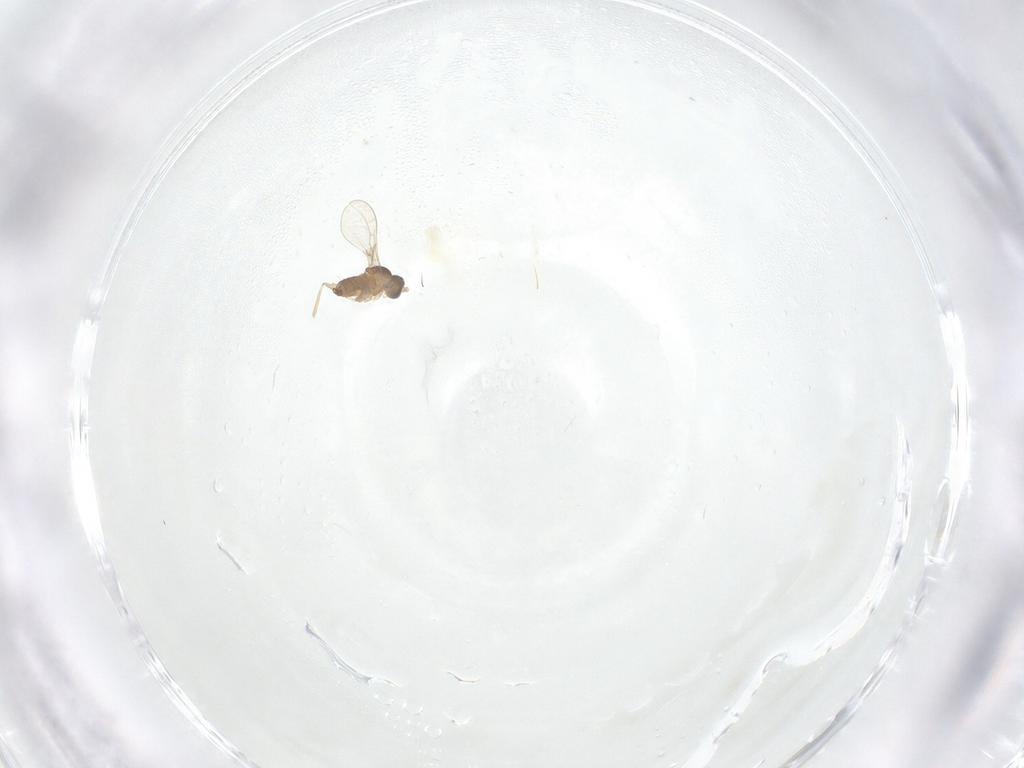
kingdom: Animalia
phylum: Arthropoda
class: Insecta
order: Diptera
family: Cecidomyiidae
